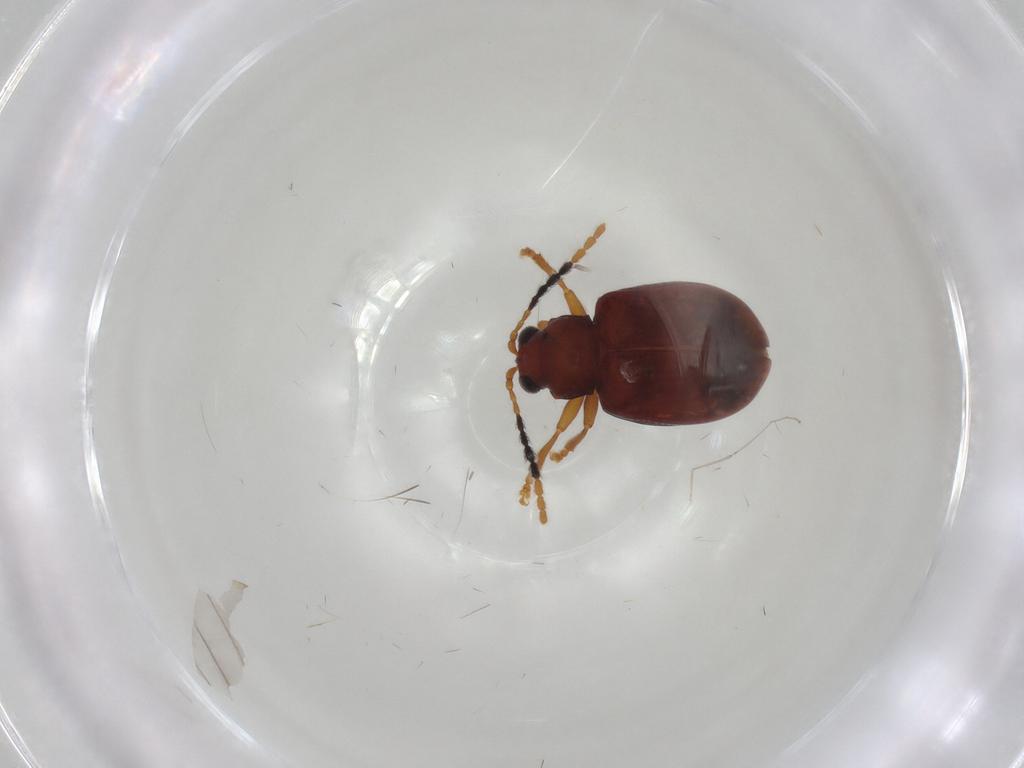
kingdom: Animalia
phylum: Arthropoda
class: Insecta
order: Coleoptera
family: Chrysomelidae
